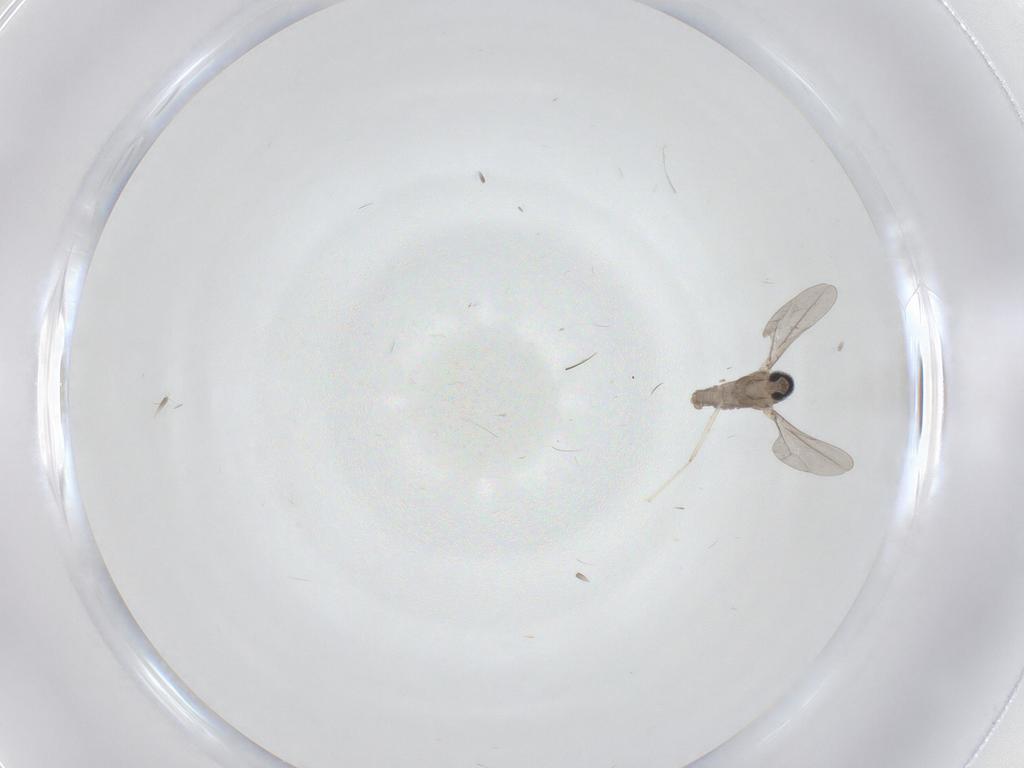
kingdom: Animalia
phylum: Arthropoda
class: Insecta
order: Diptera
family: Cecidomyiidae
